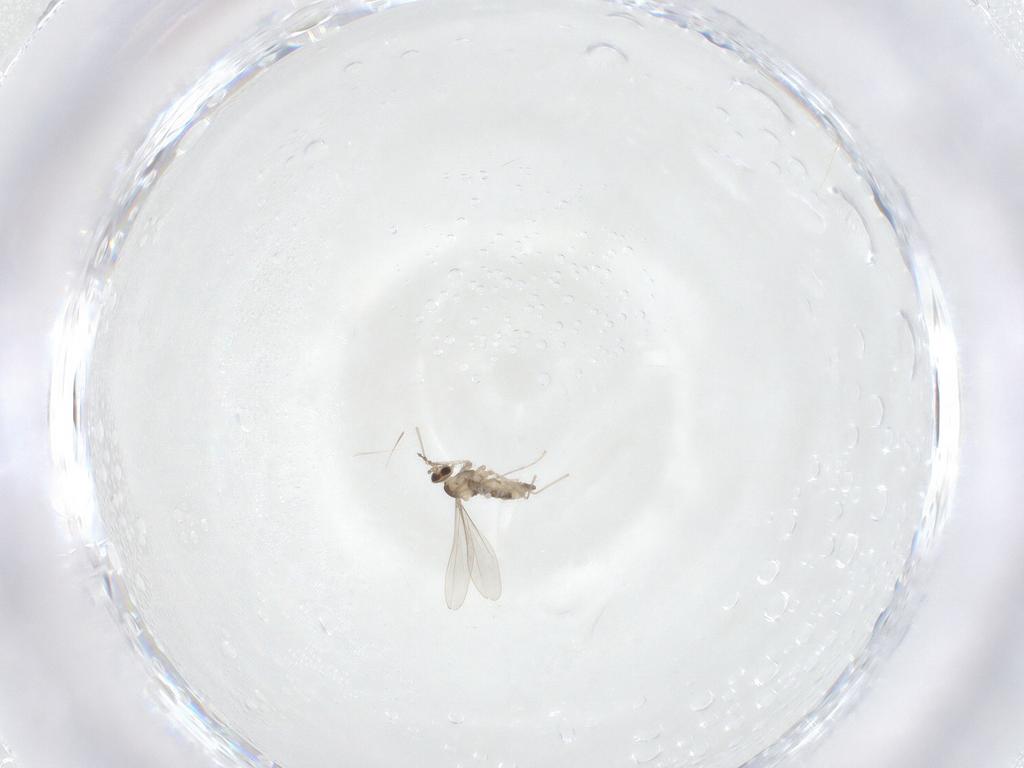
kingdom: Animalia
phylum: Arthropoda
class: Insecta
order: Diptera
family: Cecidomyiidae
